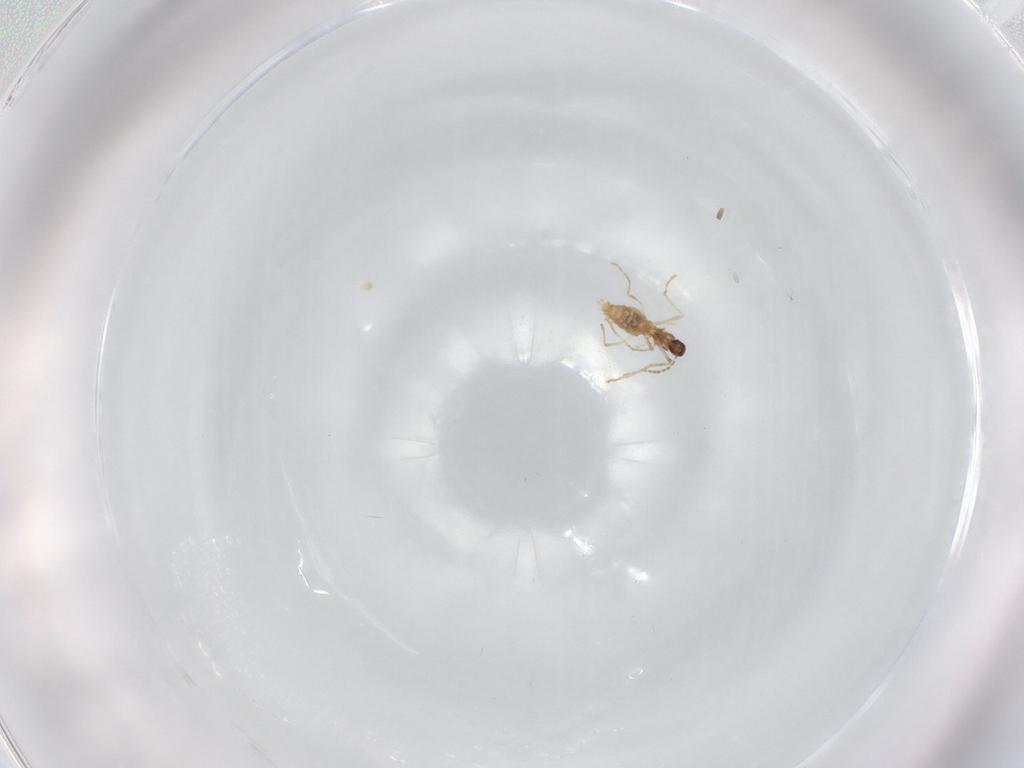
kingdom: Animalia
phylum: Arthropoda
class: Insecta
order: Diptera
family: Cecidomyiidae
